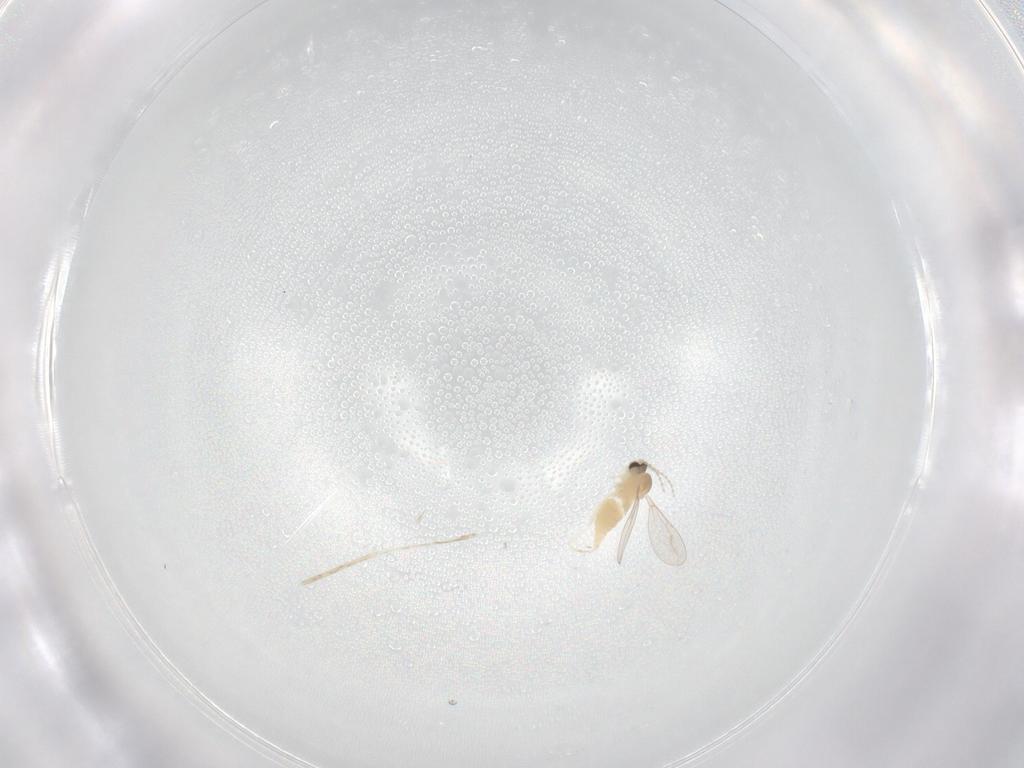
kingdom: Animalia
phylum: Arthropoda
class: Insecta
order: Diptera
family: Cecidomyiidae
